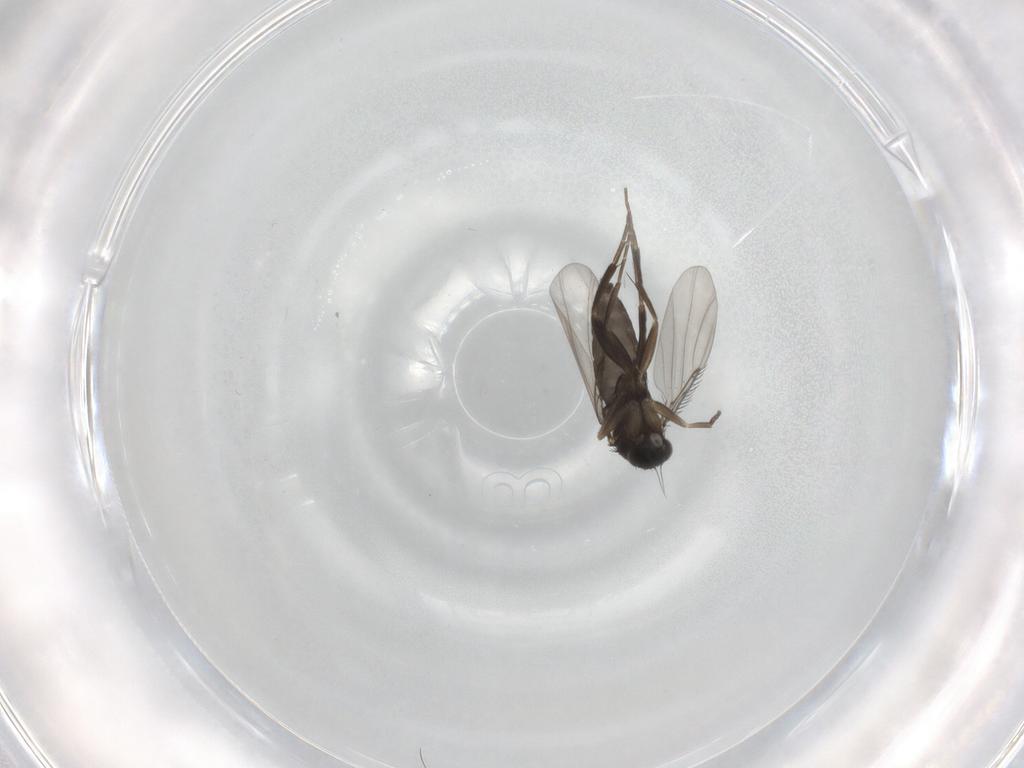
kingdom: Animalia
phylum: Arthropoda
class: Insecta
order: Diptera
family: Phoridae
